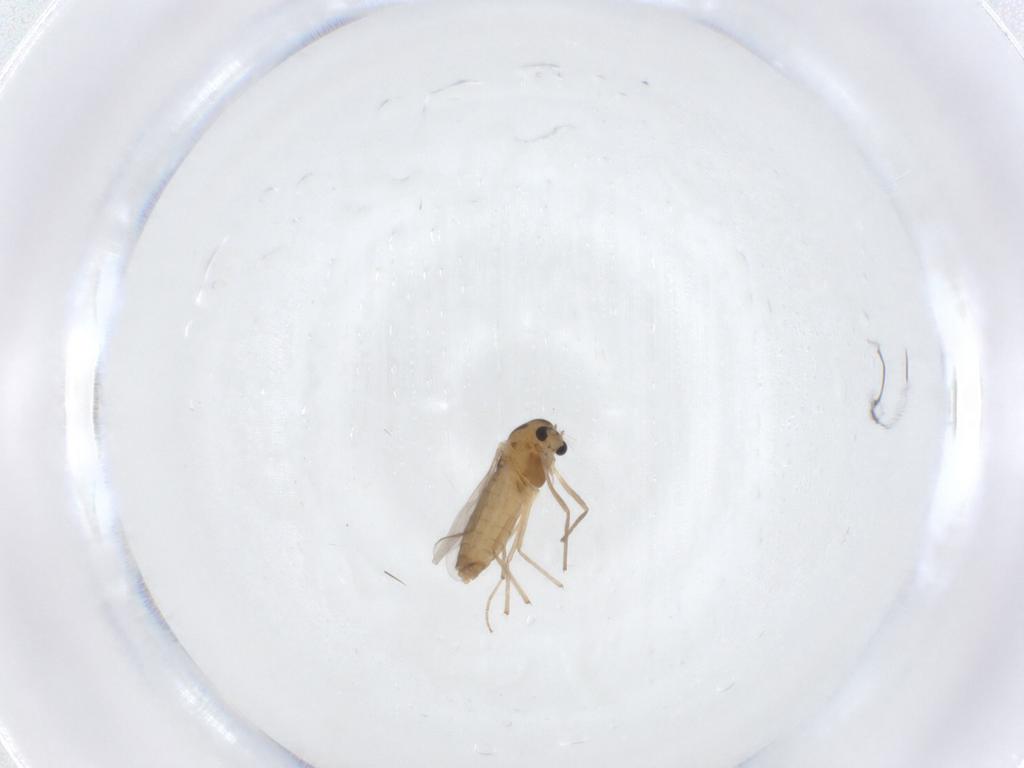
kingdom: Animalia
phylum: Arthropoda
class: Insecta
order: Diptera
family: Chironomidae
